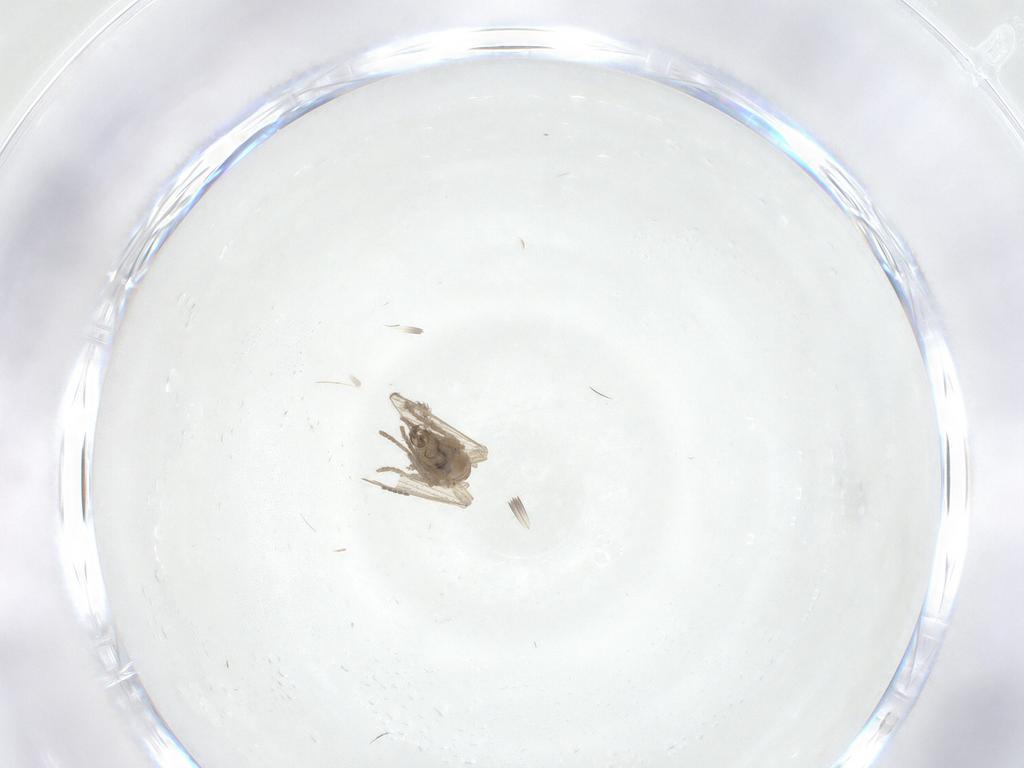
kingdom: Animalia
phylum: Arthropoda
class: Insecta
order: Diptera
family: Psychodidae
